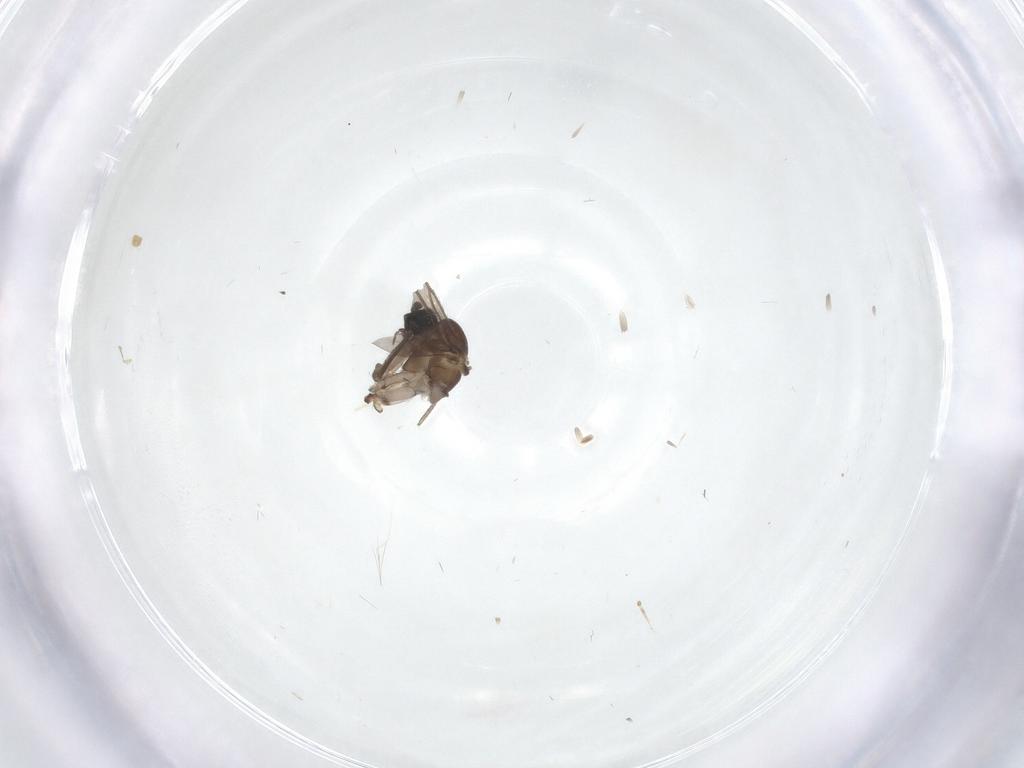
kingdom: Animalia
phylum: Arthropoda
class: Insecta
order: Diptera
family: Sciaridae
